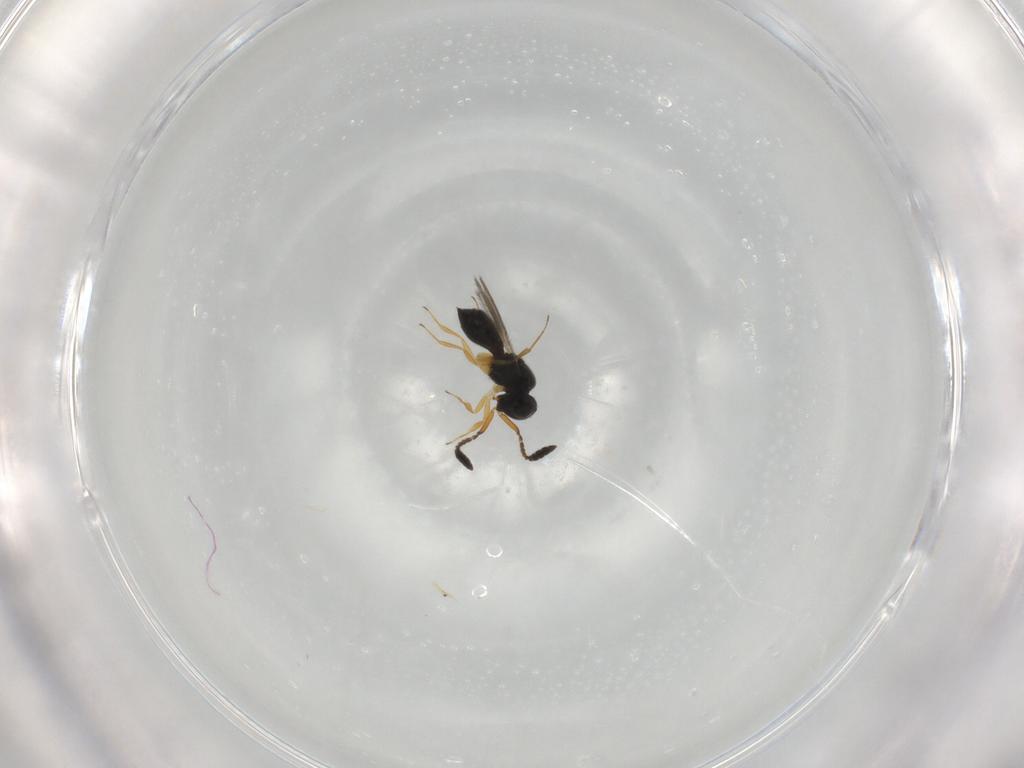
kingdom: Animalia
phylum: Arthropoda
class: Insecta
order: Hymenoptera
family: Scelionidae
